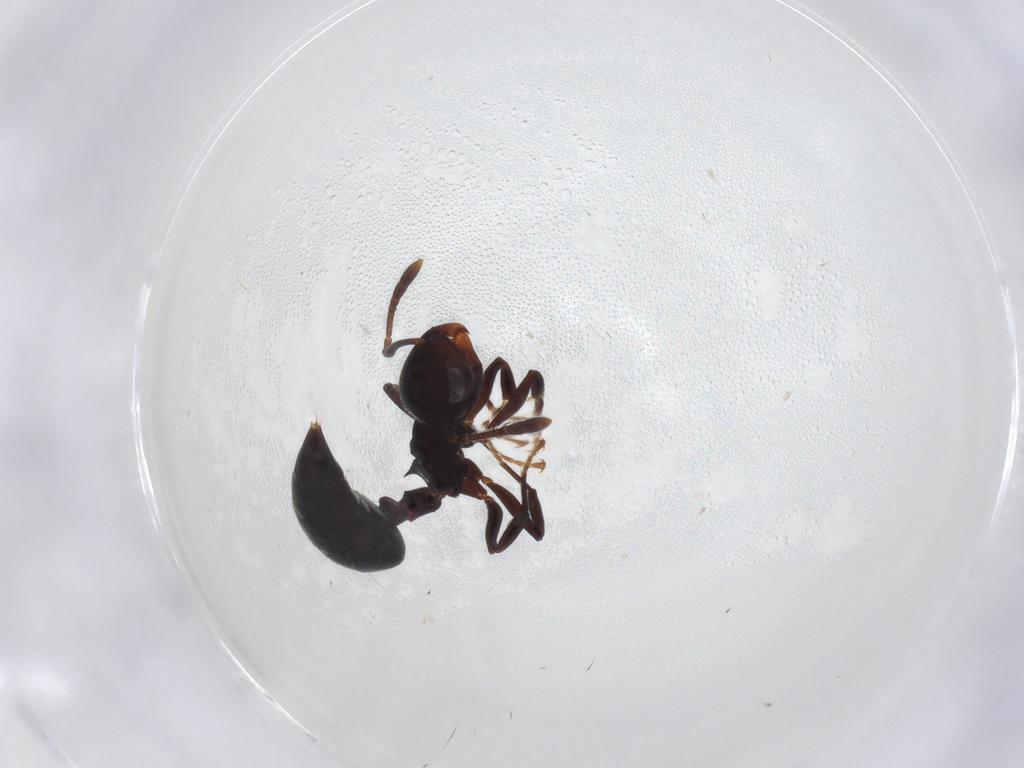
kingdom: Animalia
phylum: Arthropoda
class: Insecta
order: Hymenoptera
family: Formicidae
